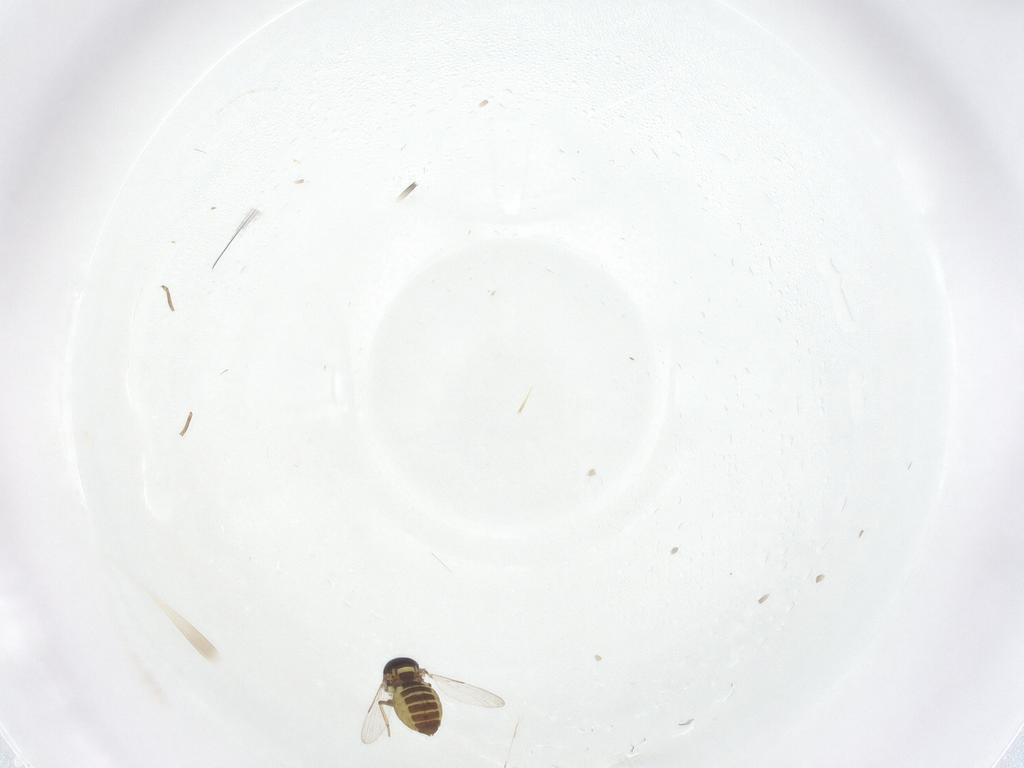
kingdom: Animalia
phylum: Arthropoda
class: Insecta
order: Diptera
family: Ceratopogonidae
